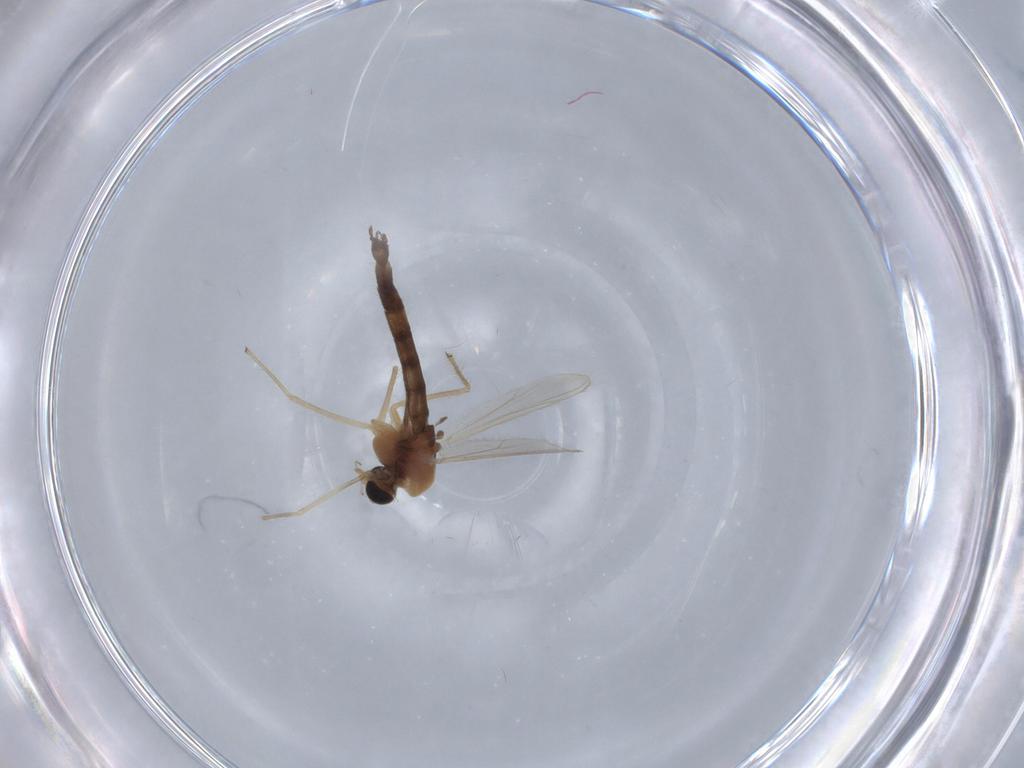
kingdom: Animalia
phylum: Arthropoda
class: Insecta
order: Diptera
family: Chironomidae
